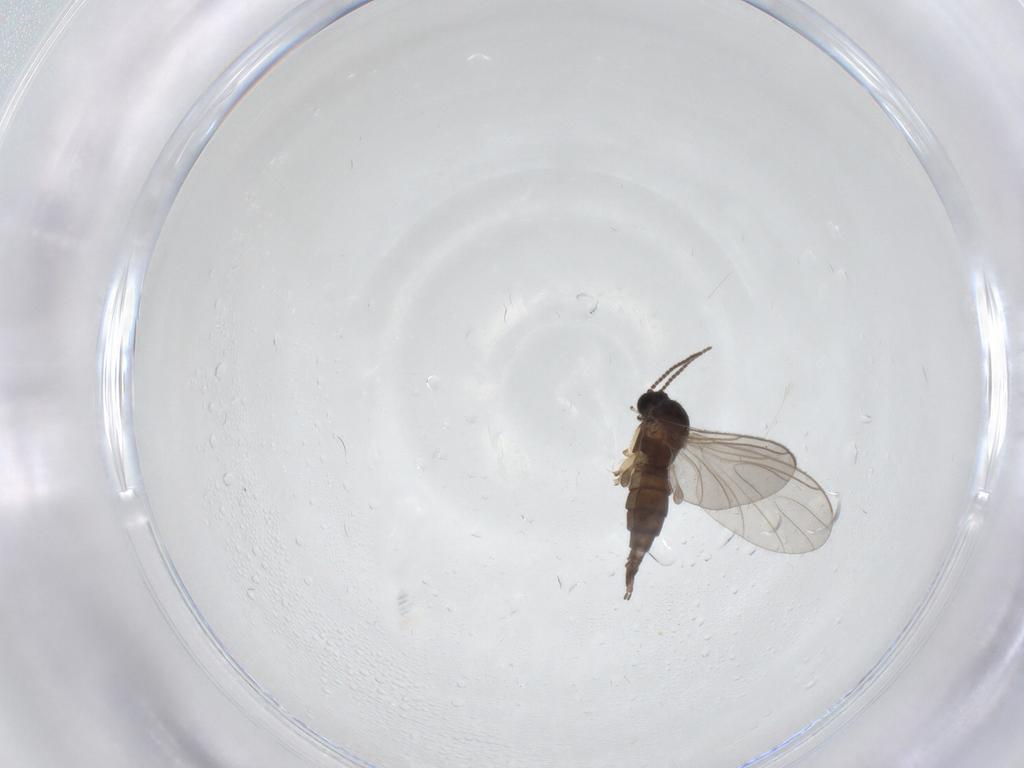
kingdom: Animalia
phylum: Arthropoda
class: Insecta
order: Diptera
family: Sciaridae
